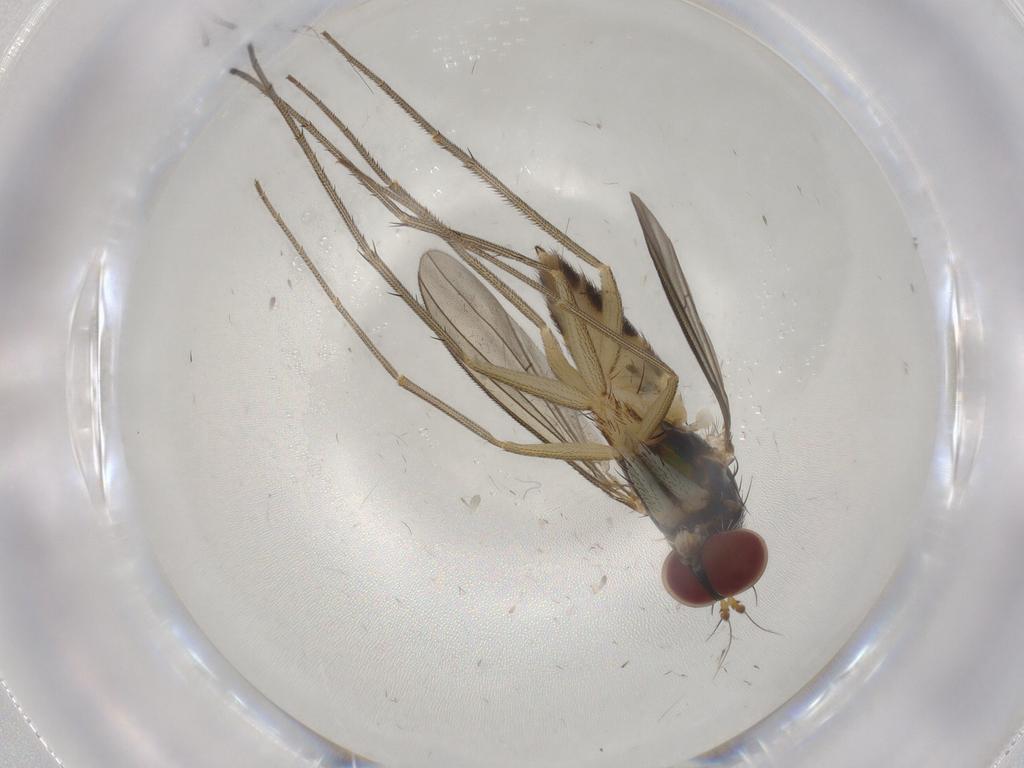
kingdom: Animalia
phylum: Arthropoda
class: Insecta
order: Diptera
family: Dolichopodidae
